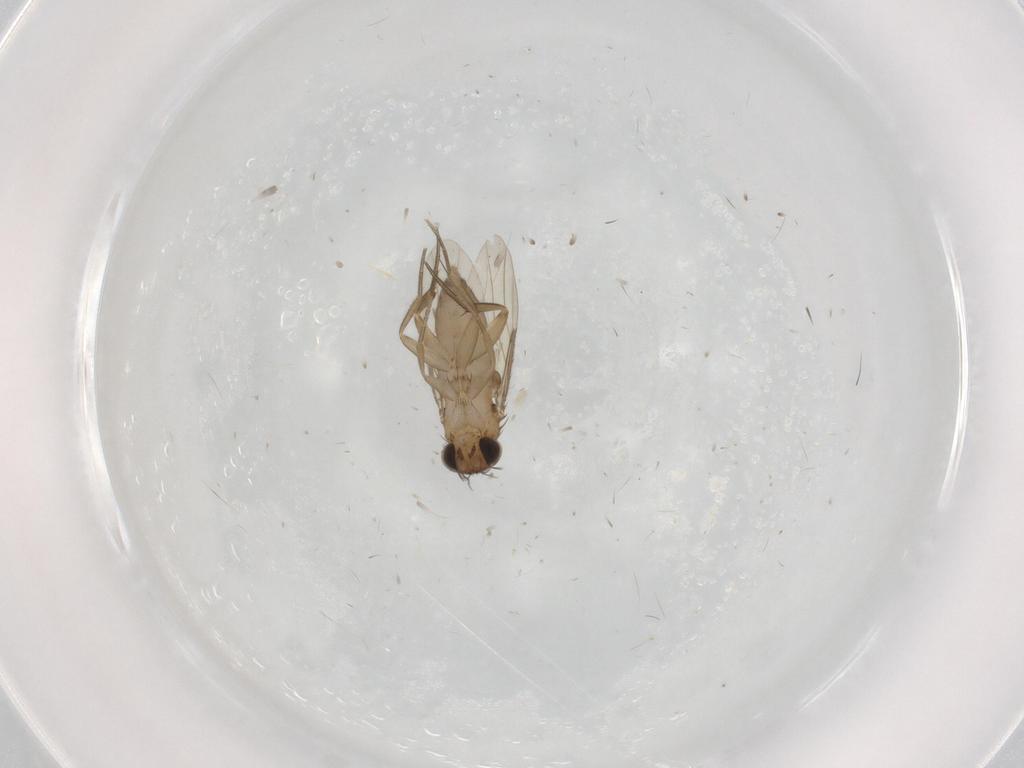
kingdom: Animalia
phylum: Arthropoda
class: Insecta
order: Diptera
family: Phoridae
